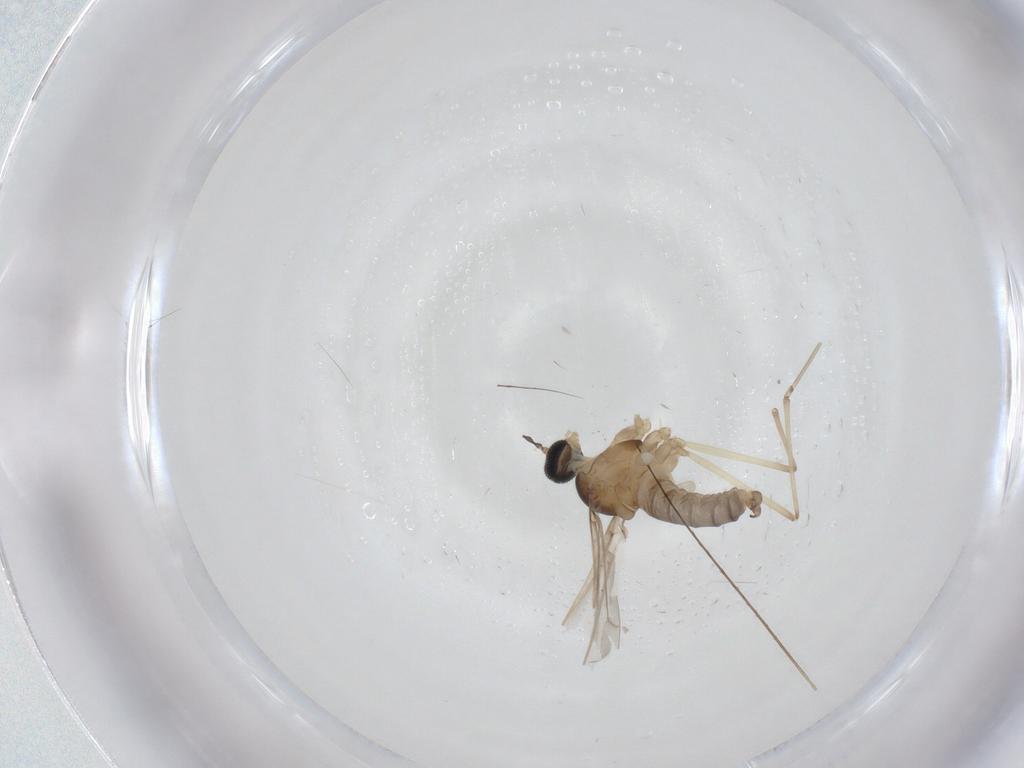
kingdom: Animalia
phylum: Arthropoda
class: Insecta
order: Diptera
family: Cecidomyiidae
